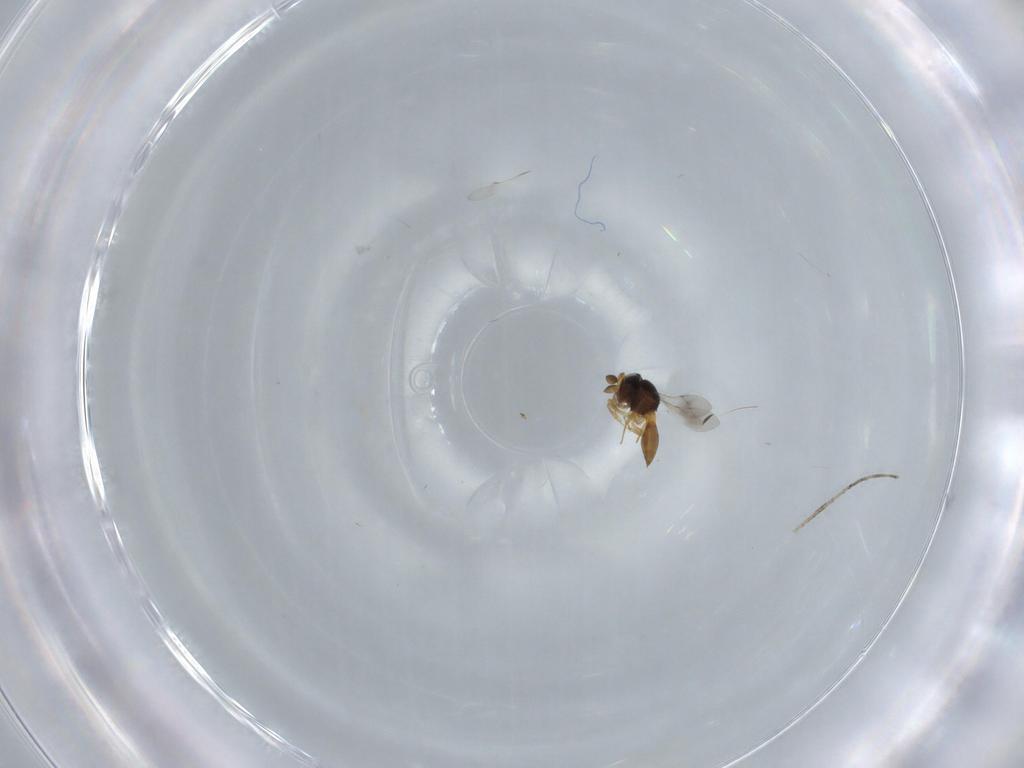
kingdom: Animalia
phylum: Arthropoda
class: Insecta
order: Hymenoptera
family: Scelionidae
